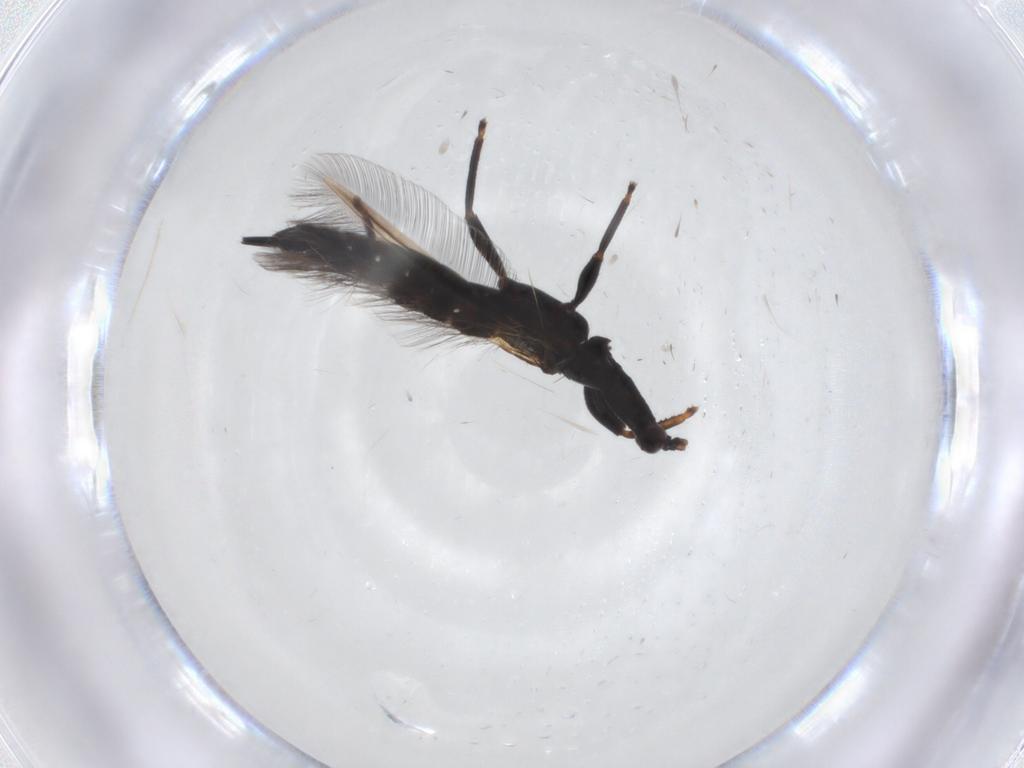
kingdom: Animalia
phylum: Arthropoda
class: Insecta
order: Thysanoptera
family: Phlaeothripidae
